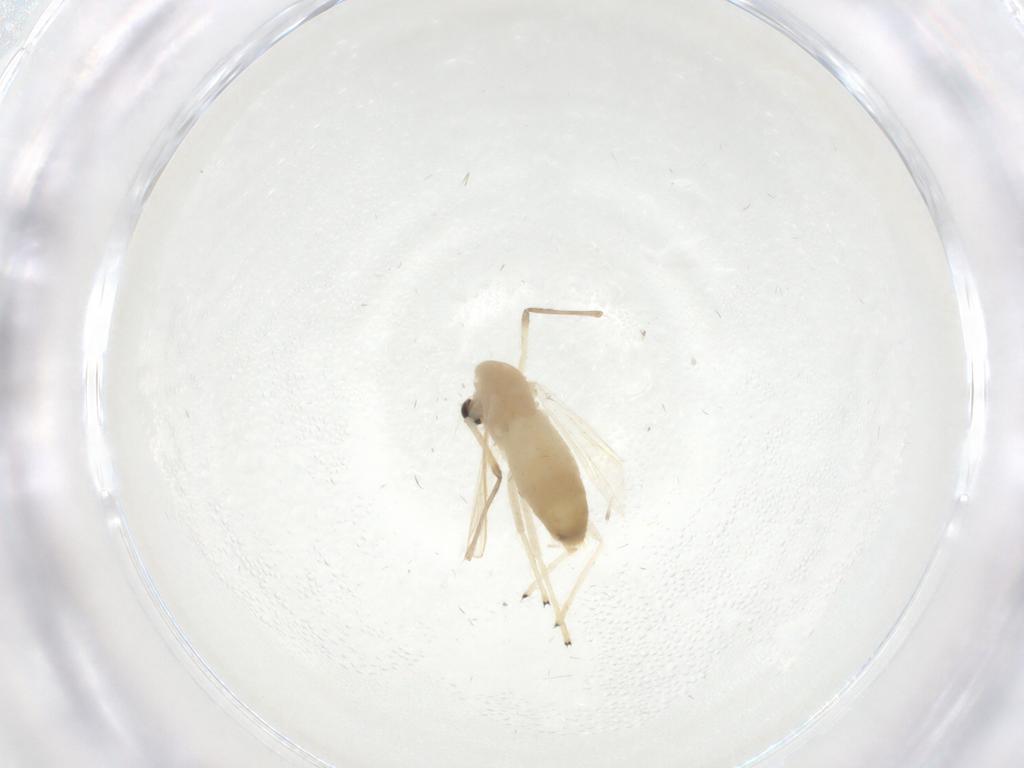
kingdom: Animalia
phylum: Arthropoda
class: Insecta
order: Diptera
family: Chironomidae
